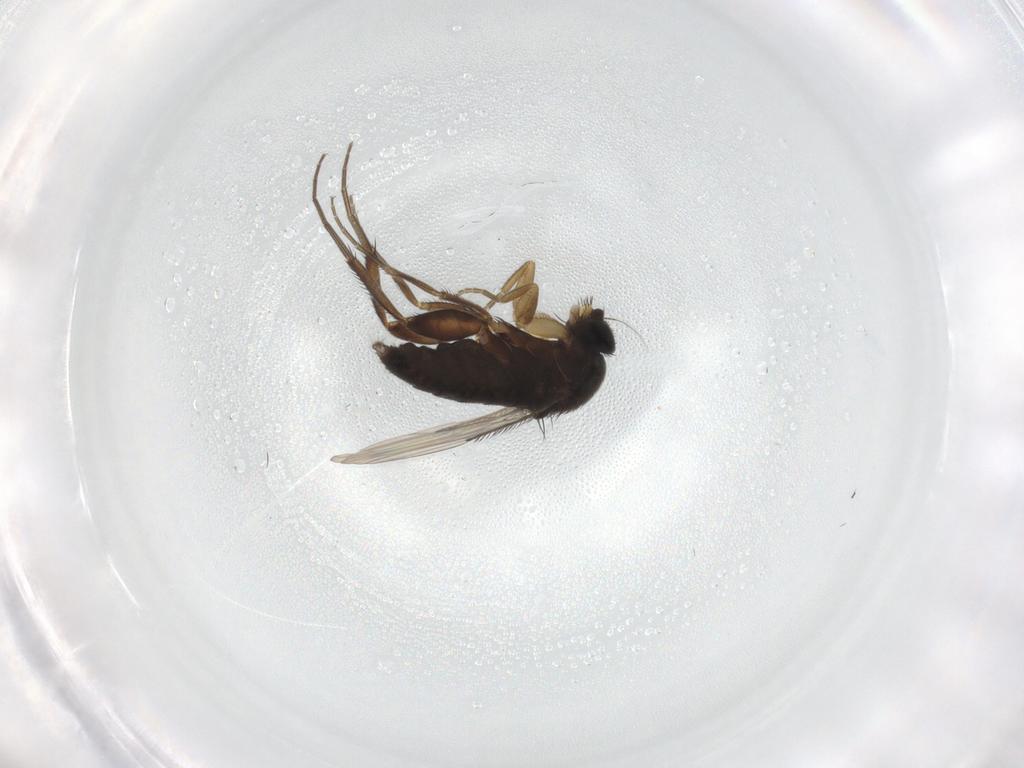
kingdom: Animalia
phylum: Arthropoda
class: Insecta
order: Diptera
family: Phoridae
